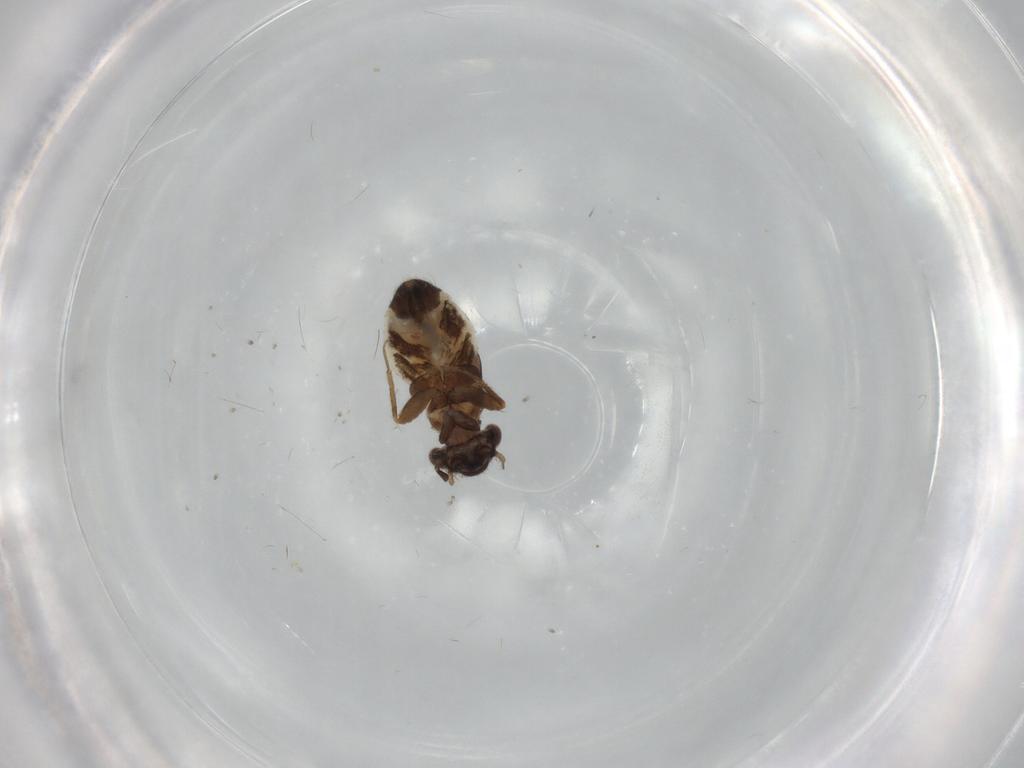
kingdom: Animalia
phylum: Arthropoda
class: Insecta
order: Psocodea
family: Lepidopsocidae
